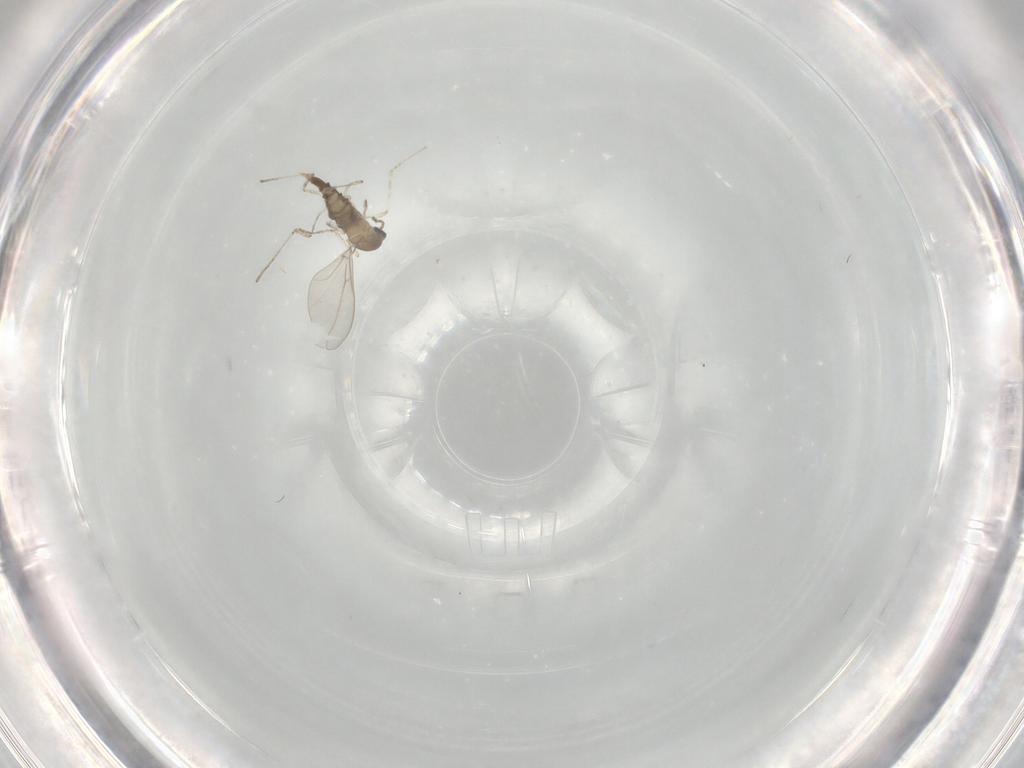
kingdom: Animalia
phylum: Arthropoda
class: Insecta
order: Diptera
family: Cecidomyiidae
